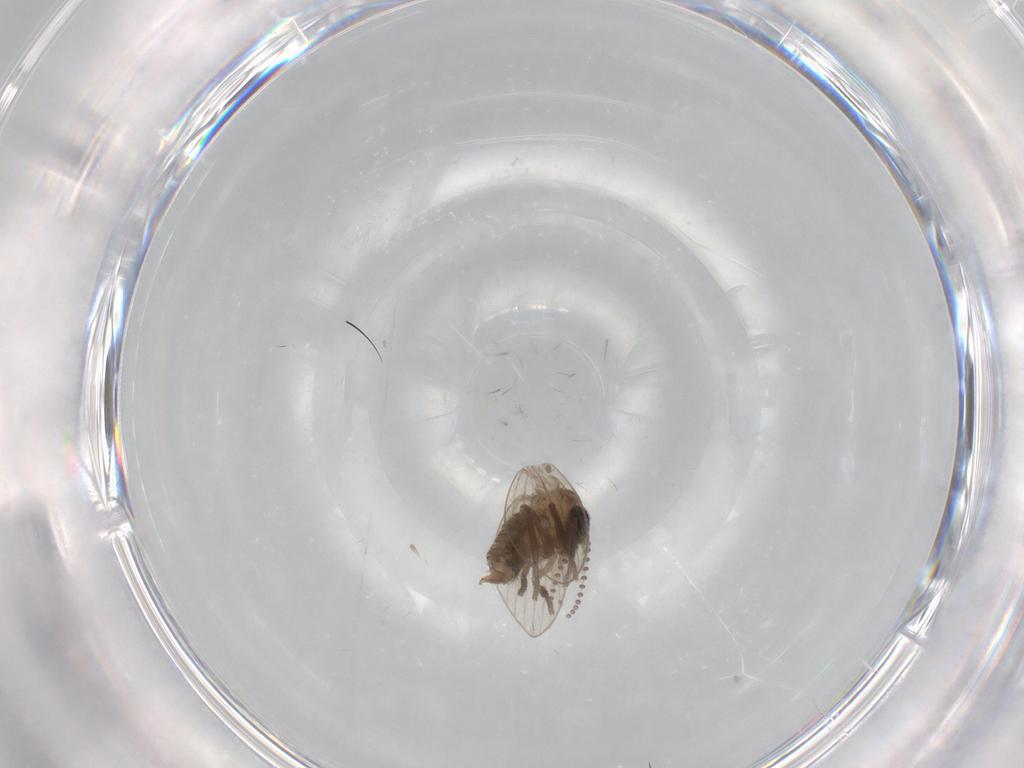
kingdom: Animalia
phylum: Arthropoda
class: Insecta
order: Diptera
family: Psychodidae
